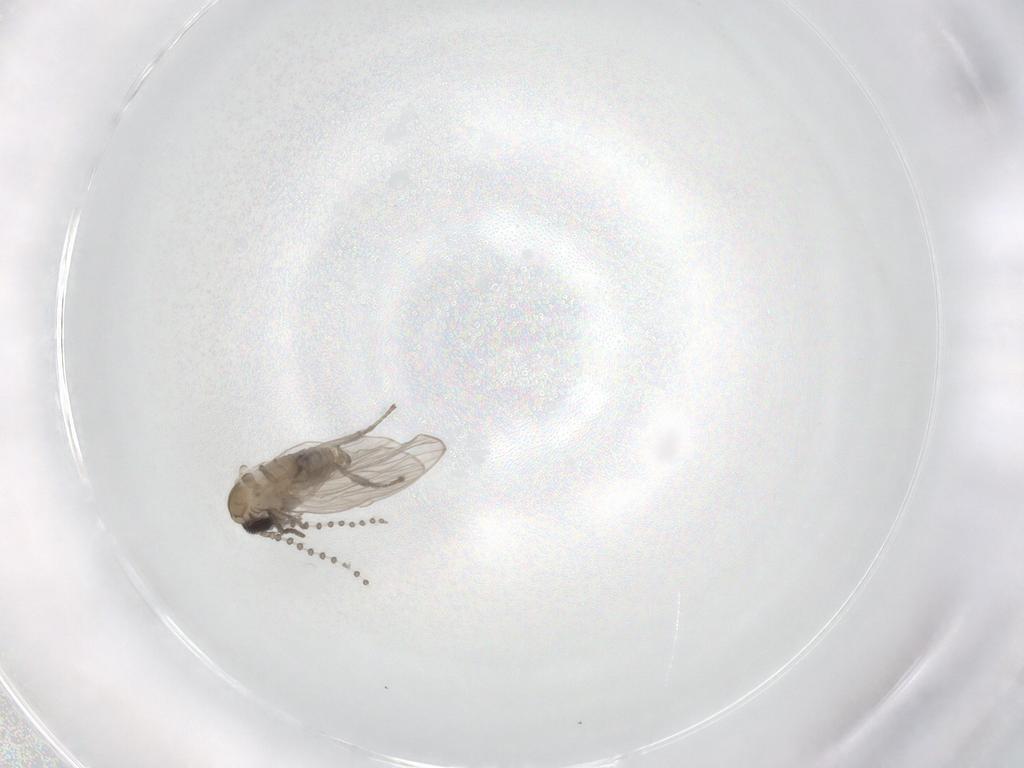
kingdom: Animalia
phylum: Arthropoda
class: Insecta
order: Diptera
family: Psychodidae
